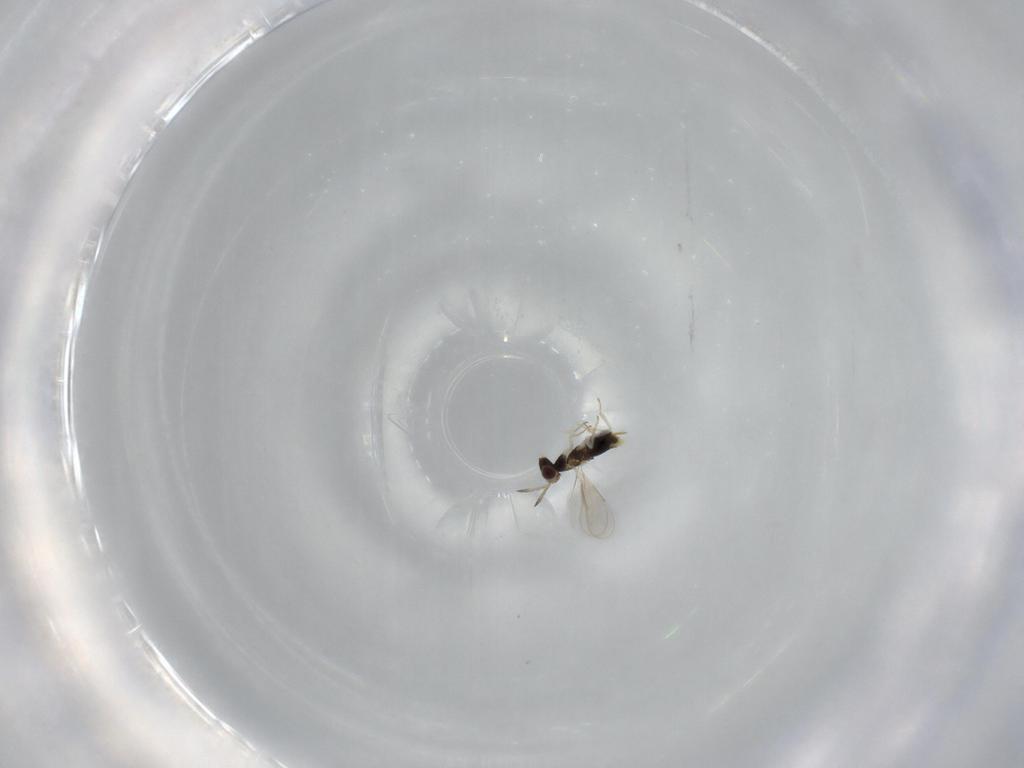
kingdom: Animalia
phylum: Arthropoda
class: Insecta
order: Hymenoptera
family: Aphelinidae
